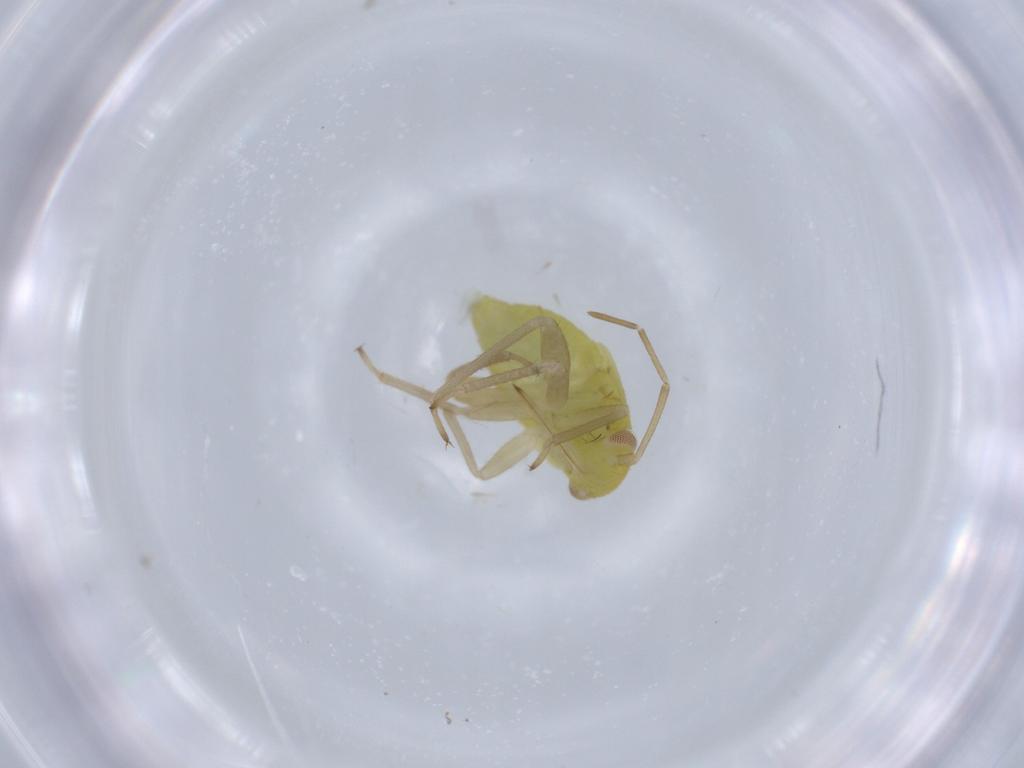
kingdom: Animalia
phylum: Arthropoda
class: Insecta
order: Hemiptera
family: Miridae
